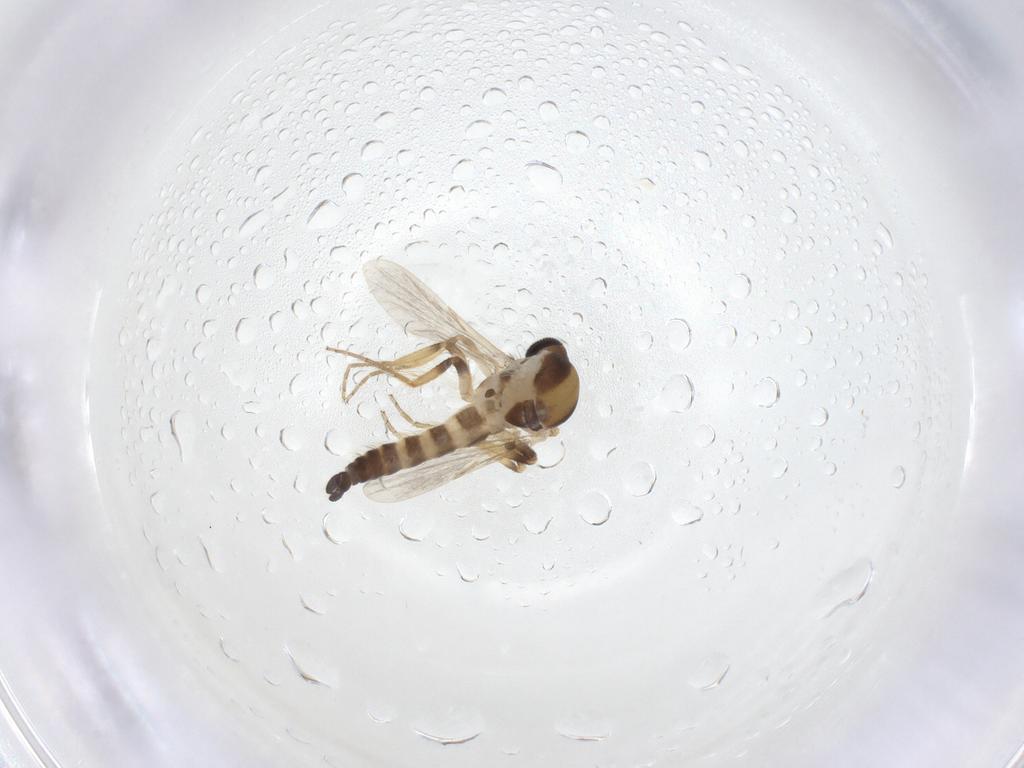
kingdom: Animalia
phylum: Arthropoda
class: Insecta
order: Diptera
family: Ceratopogonidae
